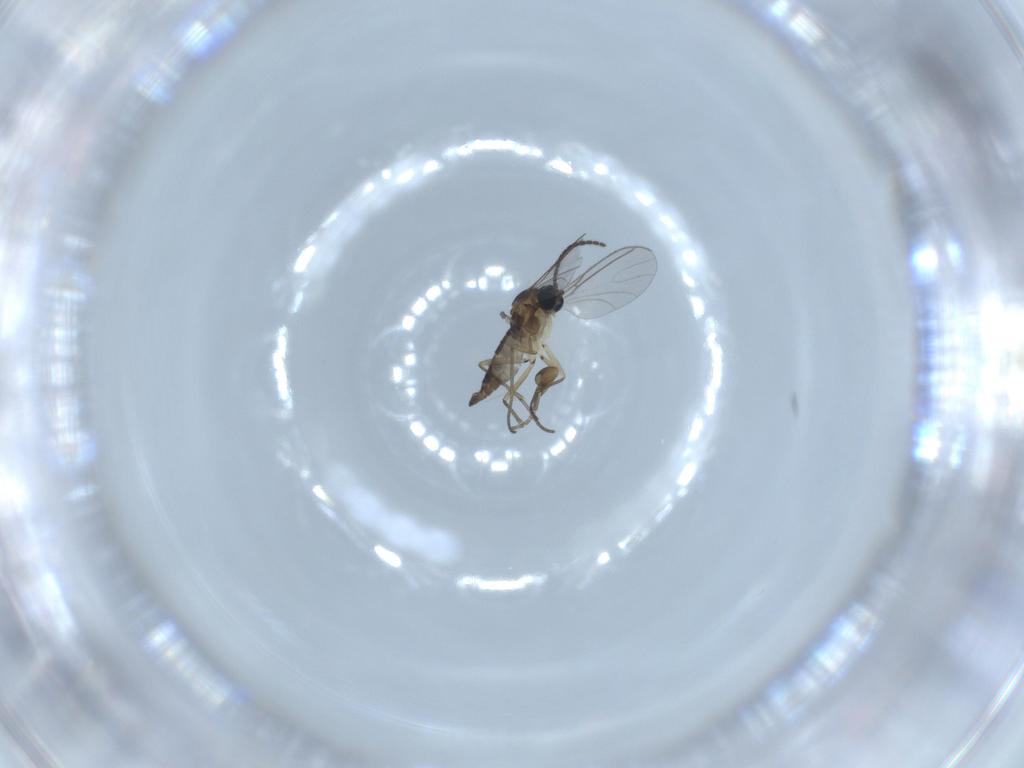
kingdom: Animalia
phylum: Arthropoda
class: Insecta
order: Diptera
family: Phoridae
